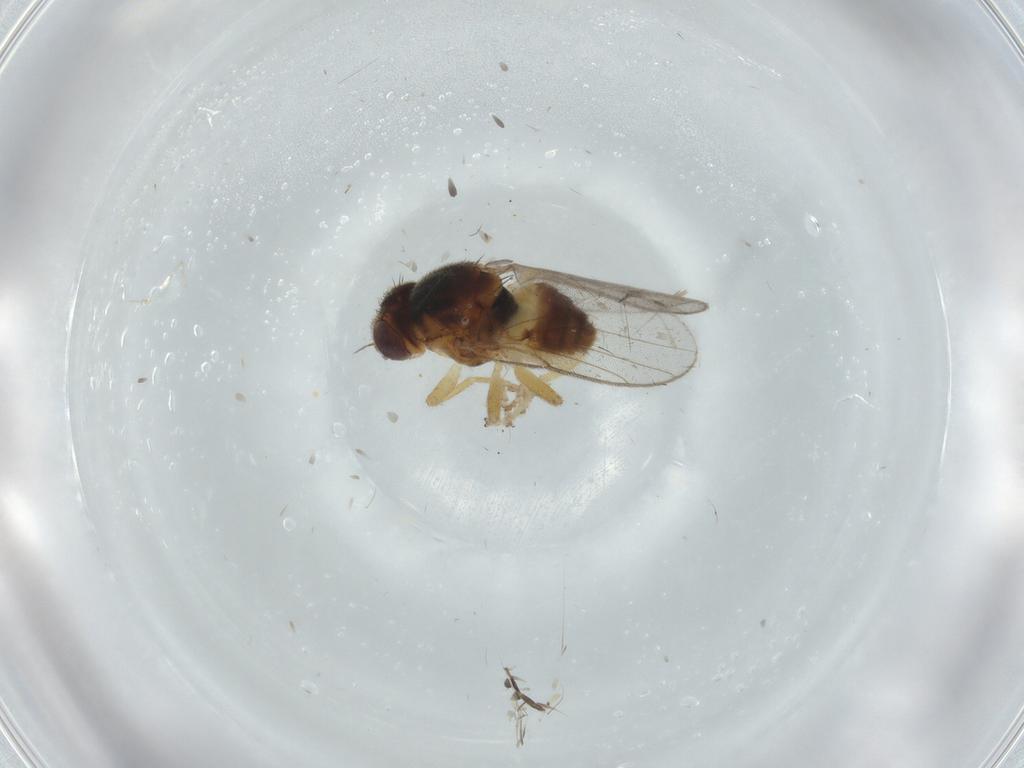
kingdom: Animalia
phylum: Arthropoda
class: Insecta
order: Diptera
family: Chloropidae
